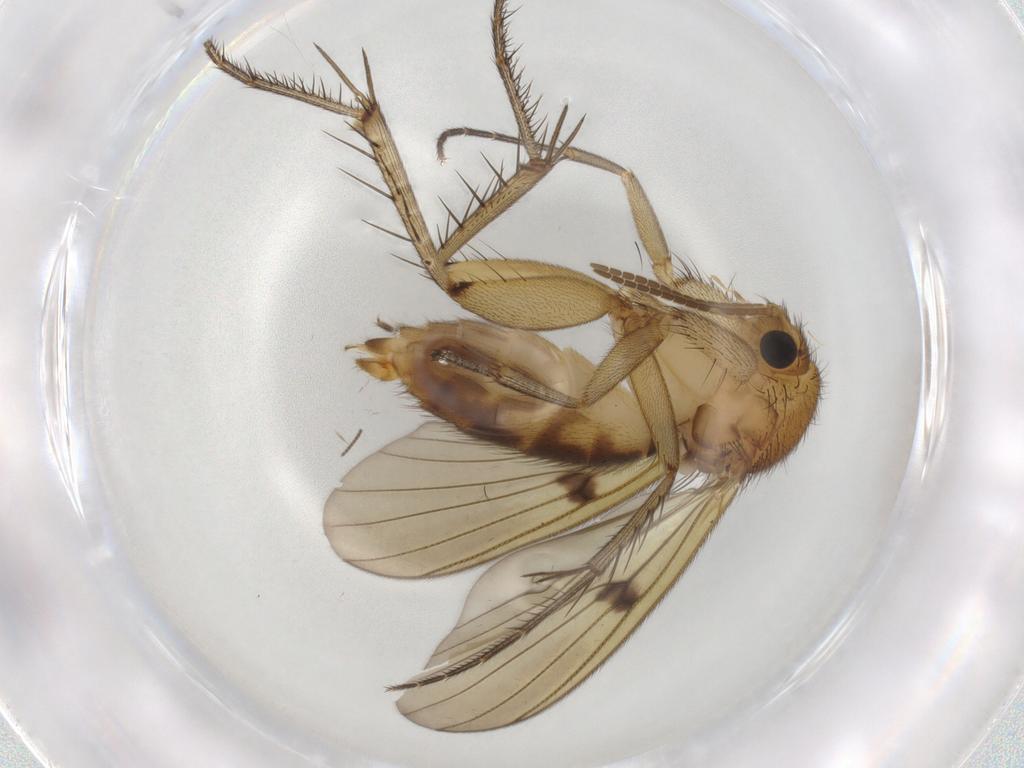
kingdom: Animalia
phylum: Arthropoda
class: Insecta
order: Diptera
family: Mycetophilidae
